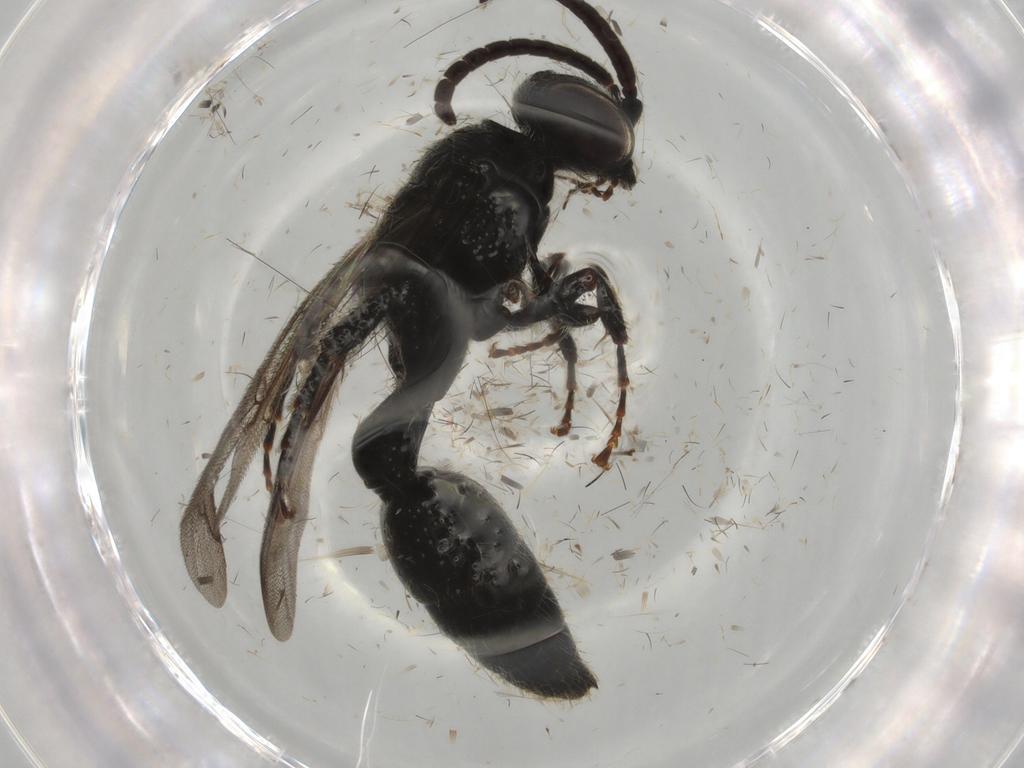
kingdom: Animalia
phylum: Arthropoda
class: Insecta
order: Hymenoptera
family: Tiphiidae
